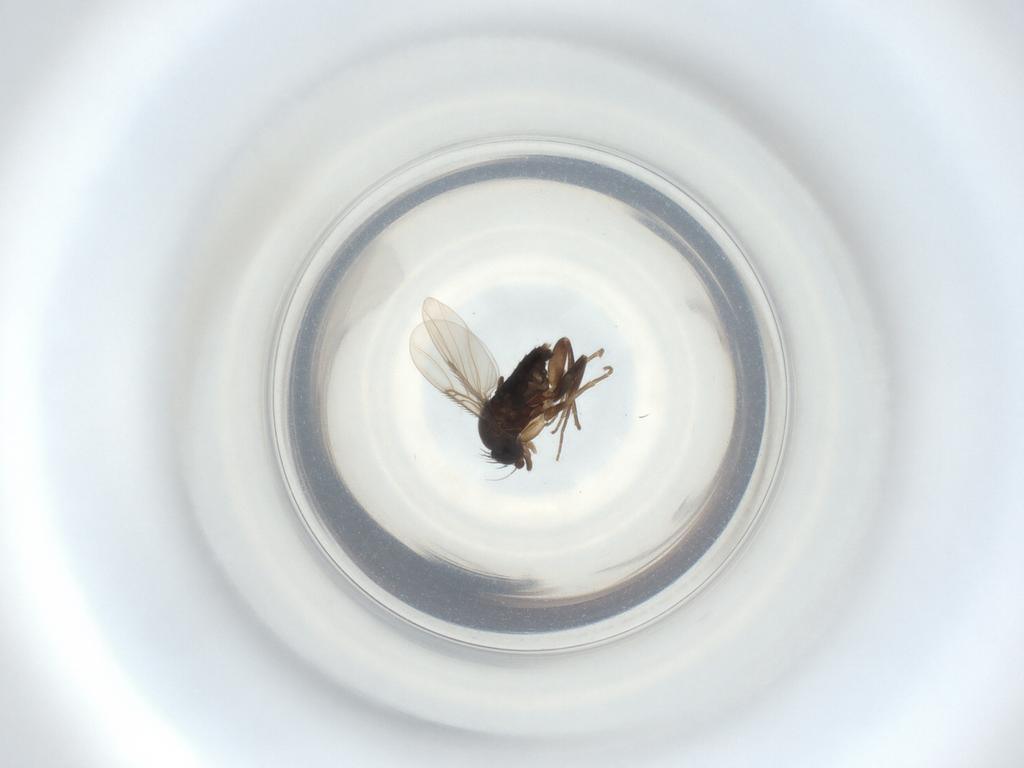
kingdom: Animalia
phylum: Arthropoda
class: Insecta
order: Diptera
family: Phoridae
